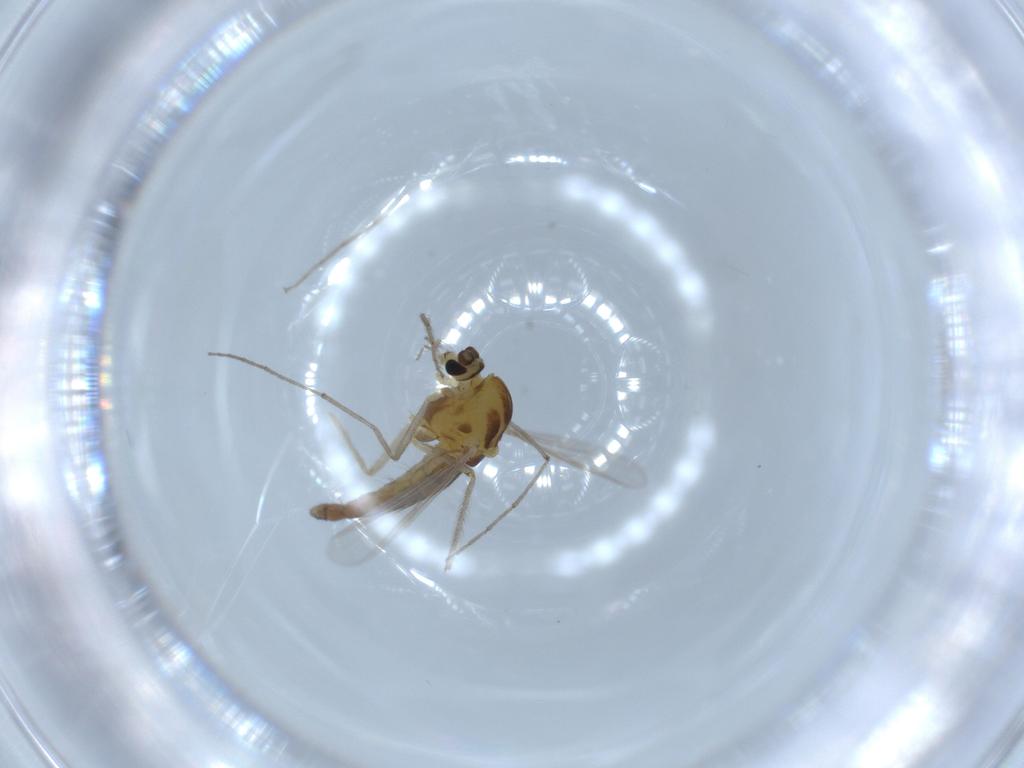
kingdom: Animalia
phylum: Arthropoda
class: Insecta
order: Diptera
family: Chironomidae
